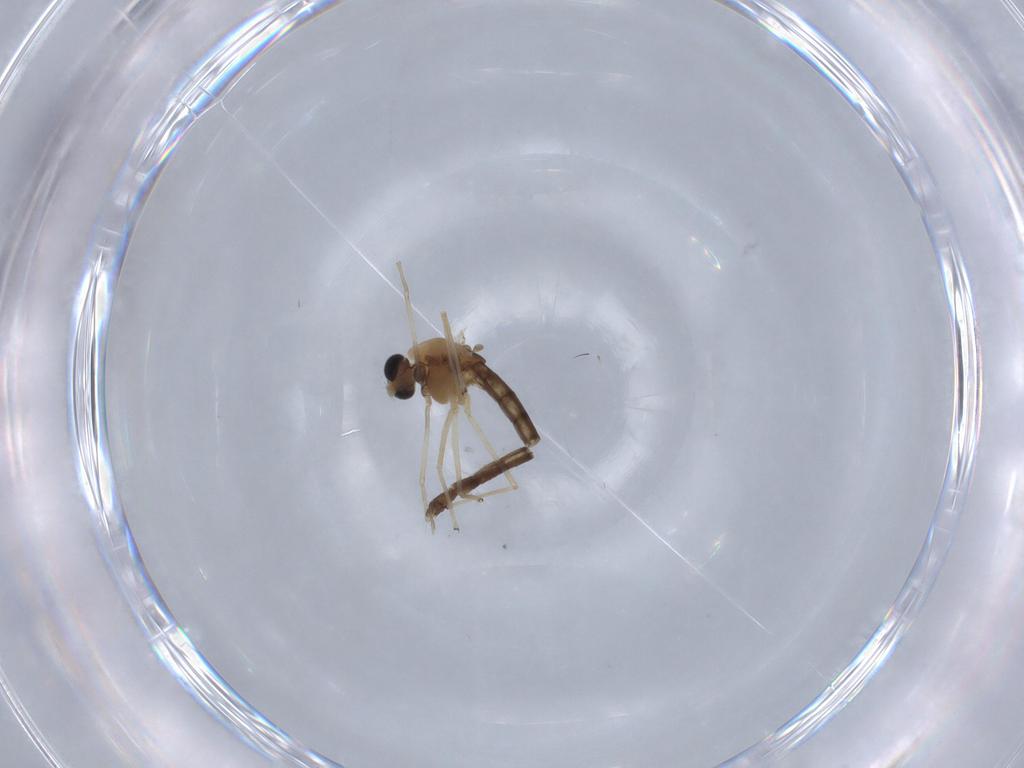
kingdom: Animalia
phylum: Arthropoda
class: Insecta
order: Diptera
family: Chironomidae
